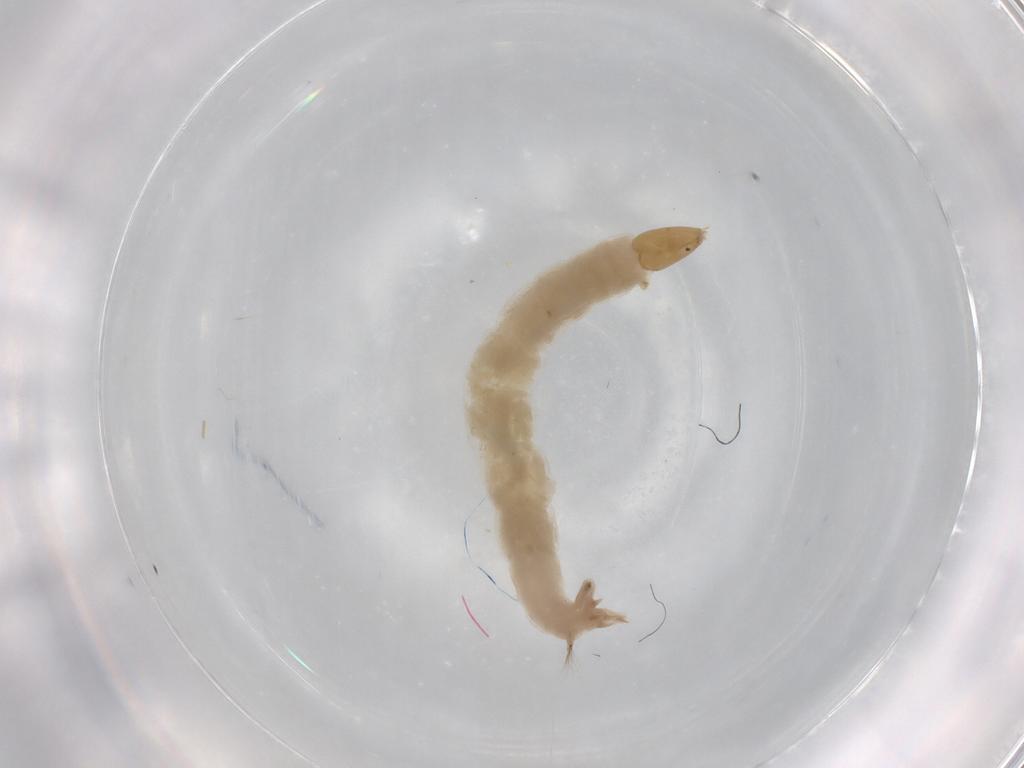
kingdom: Animalia
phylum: Arthropoda
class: Insecta
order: Diptera
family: Chironomidae
